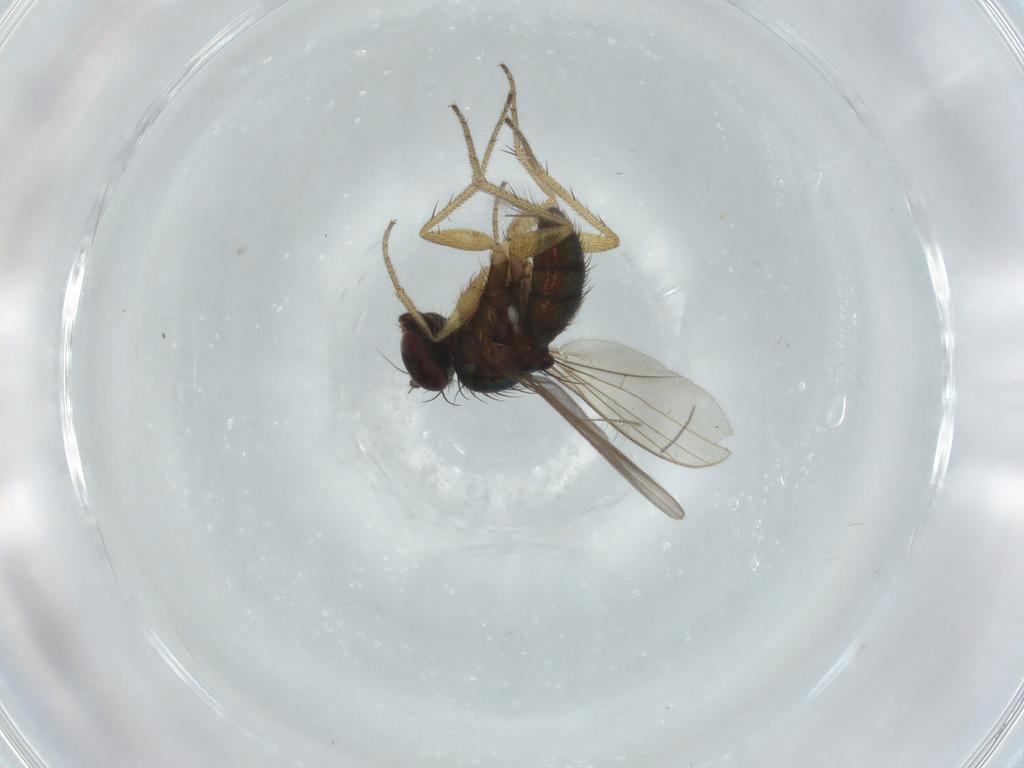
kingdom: Animalia
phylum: Arthropoda
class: Insecta
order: Diptera
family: Dolichopodidae
